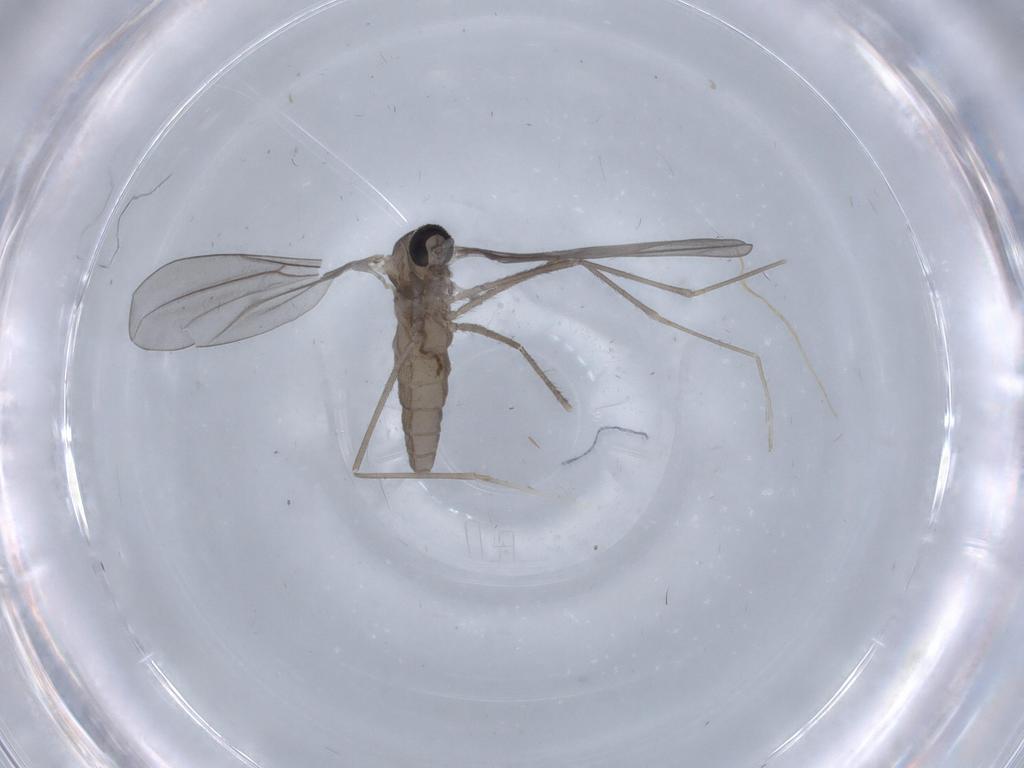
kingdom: Animalia
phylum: Arthropoda
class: Insecta
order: Diptera
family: Cecidomyiidae
